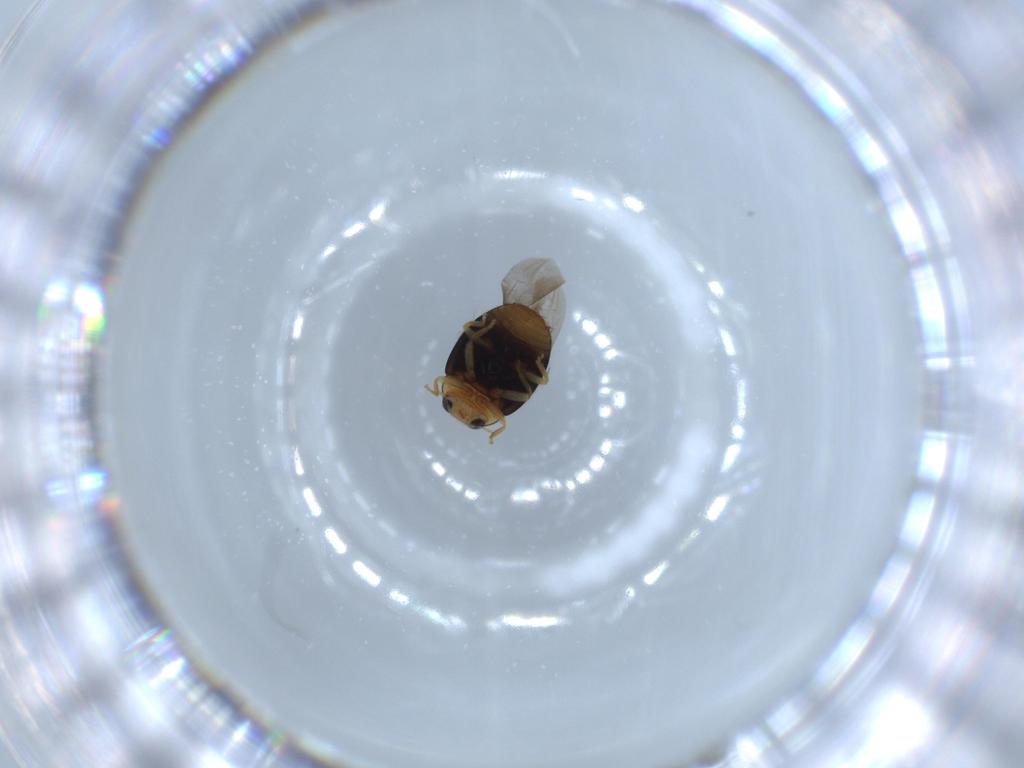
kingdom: Animalia
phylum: Arthropoda
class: Insecta
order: Coleoptera
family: Coccinellidae
